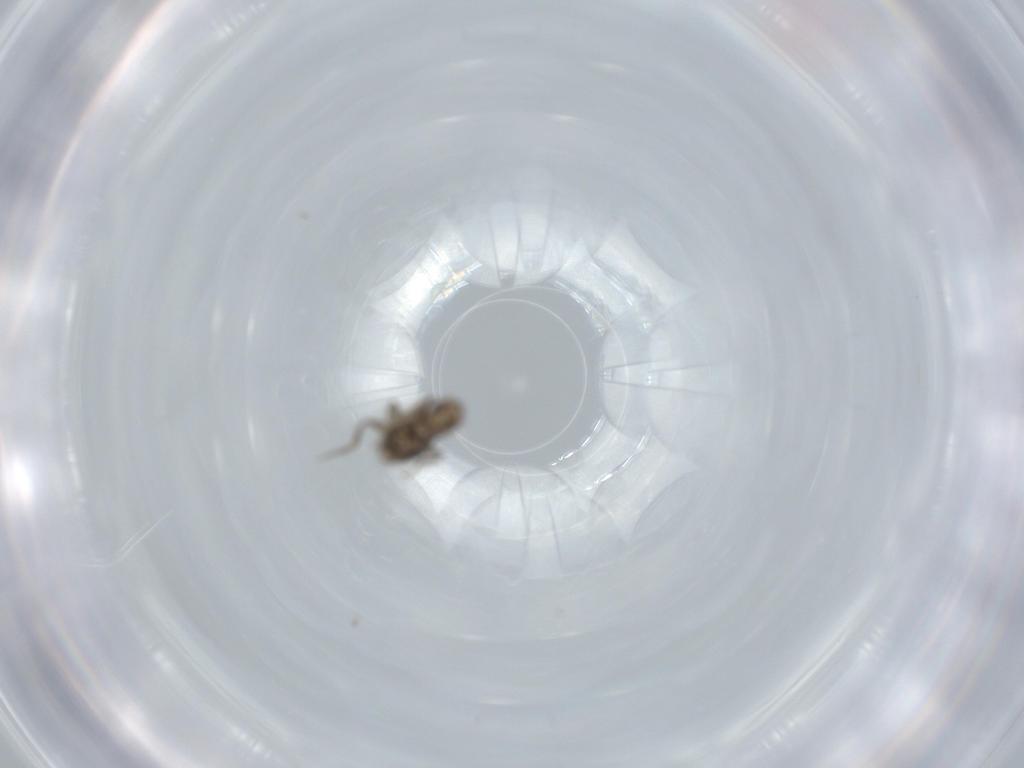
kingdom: Animalia
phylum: Arthropoda
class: Insecta
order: Diptera
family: Phoridae
